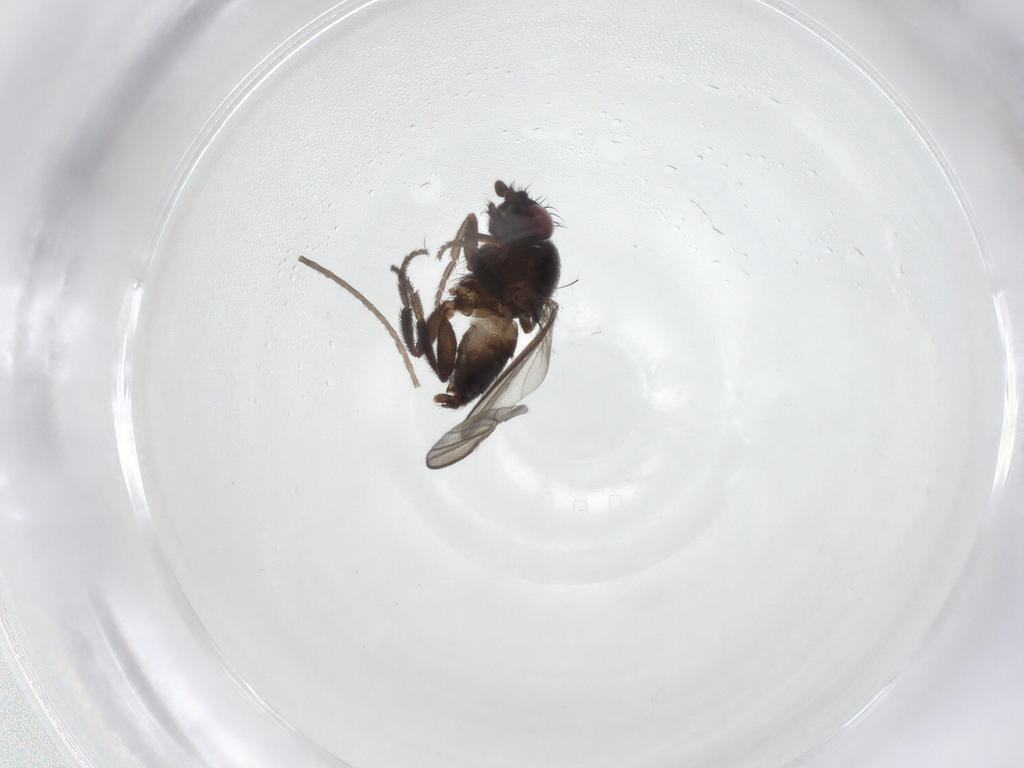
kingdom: Animalia
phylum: Arthropoda
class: Insecta
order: Diptera
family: Milichiidae
